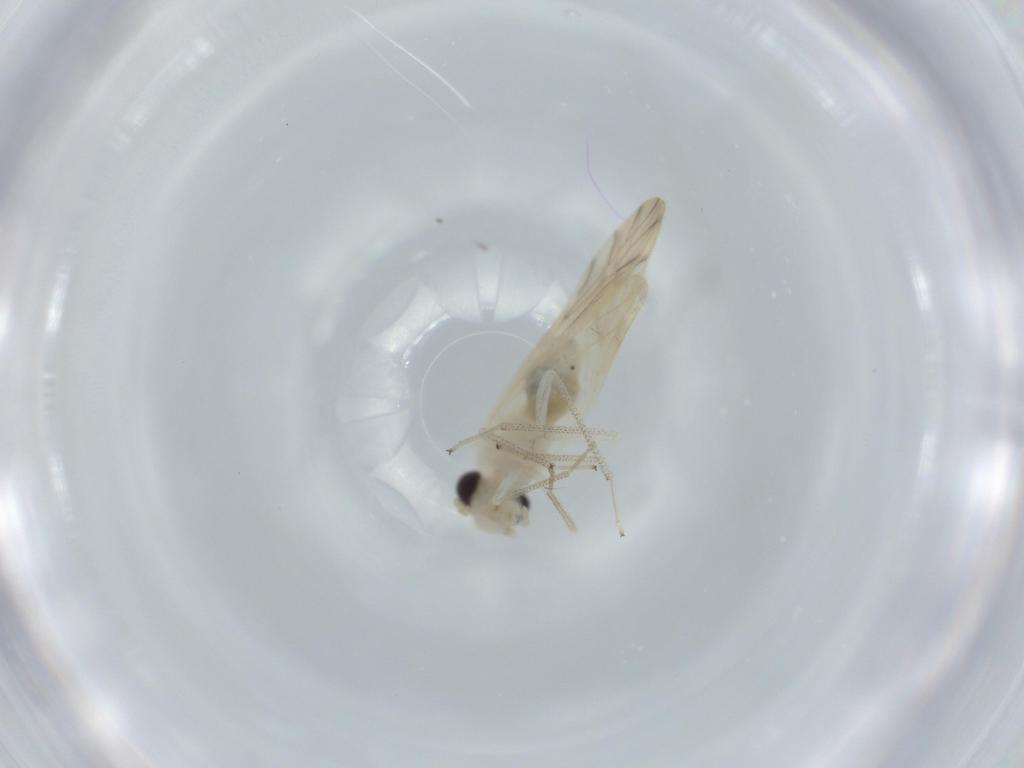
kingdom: Animalia
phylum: Arthropoda
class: Insecta
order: Psocodea
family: Caeciliusidae
